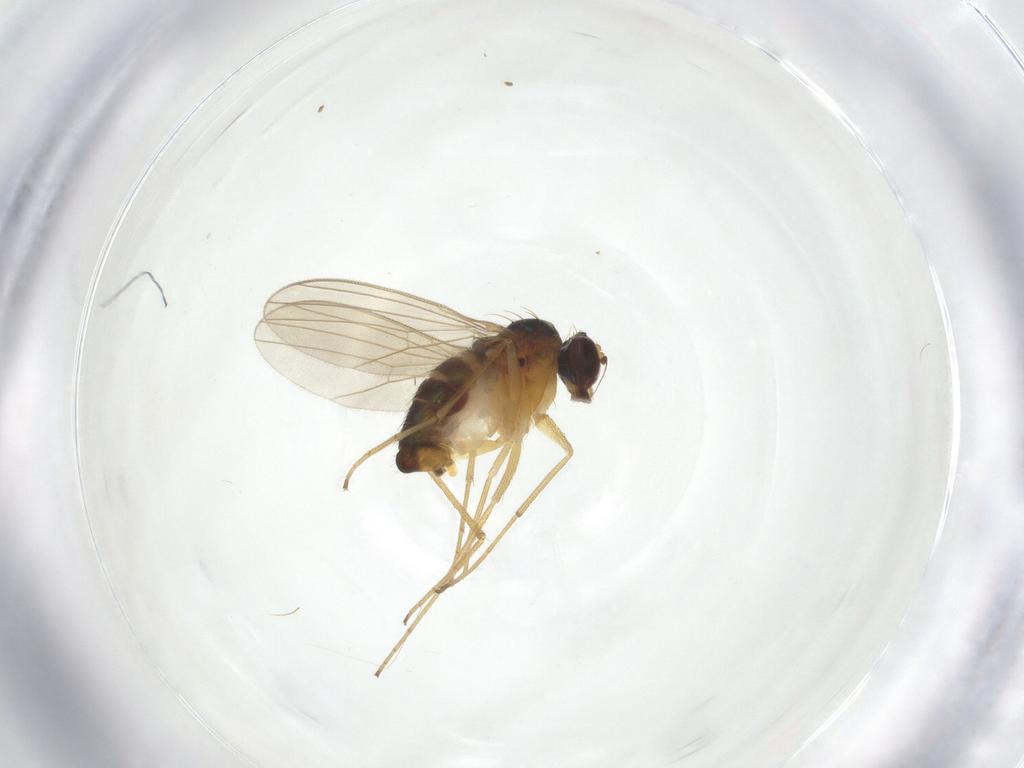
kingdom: Animalia
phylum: Arthropoda
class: Insecta
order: Diptera
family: Dolichopodidae
